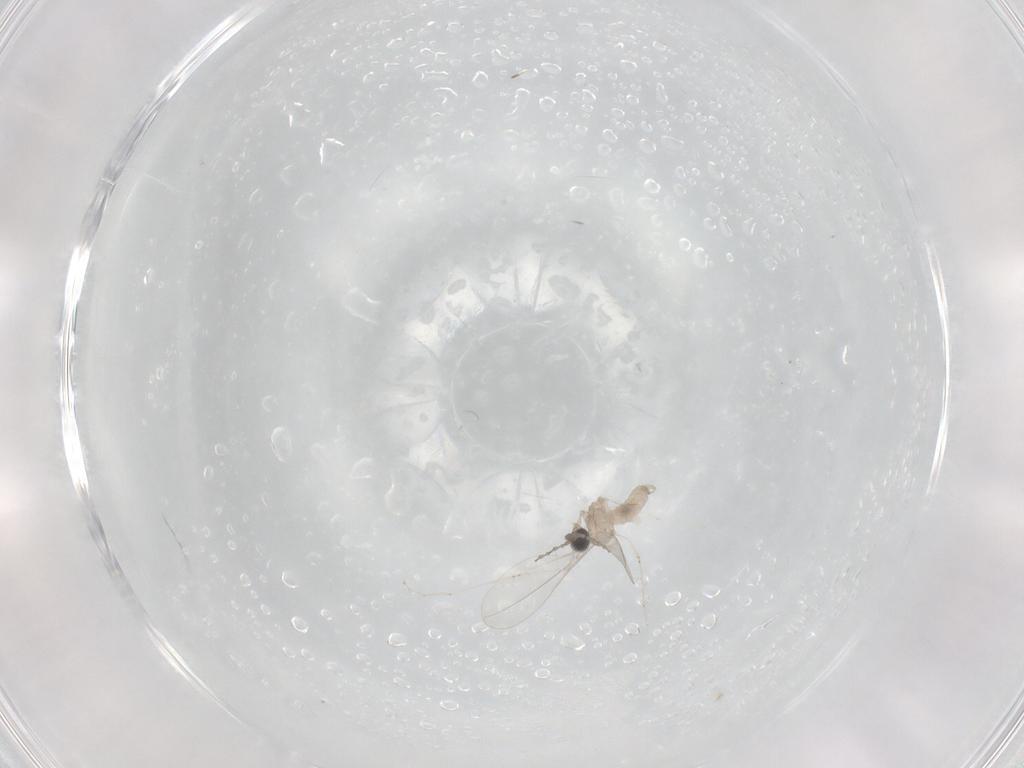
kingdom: Animalia
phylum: Arthropoda
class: Insecta
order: Diptera
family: Cecidomyiidae
